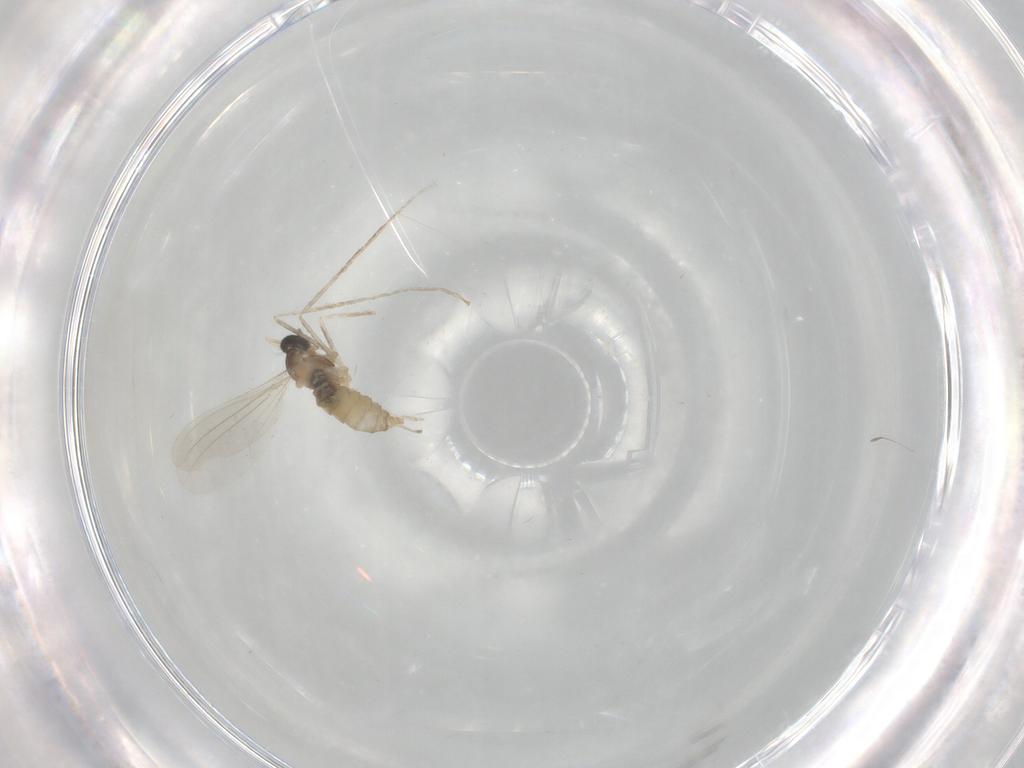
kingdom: Animalia
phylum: Arthropoda
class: Insecta
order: Diptera
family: Cecidomyiidae
